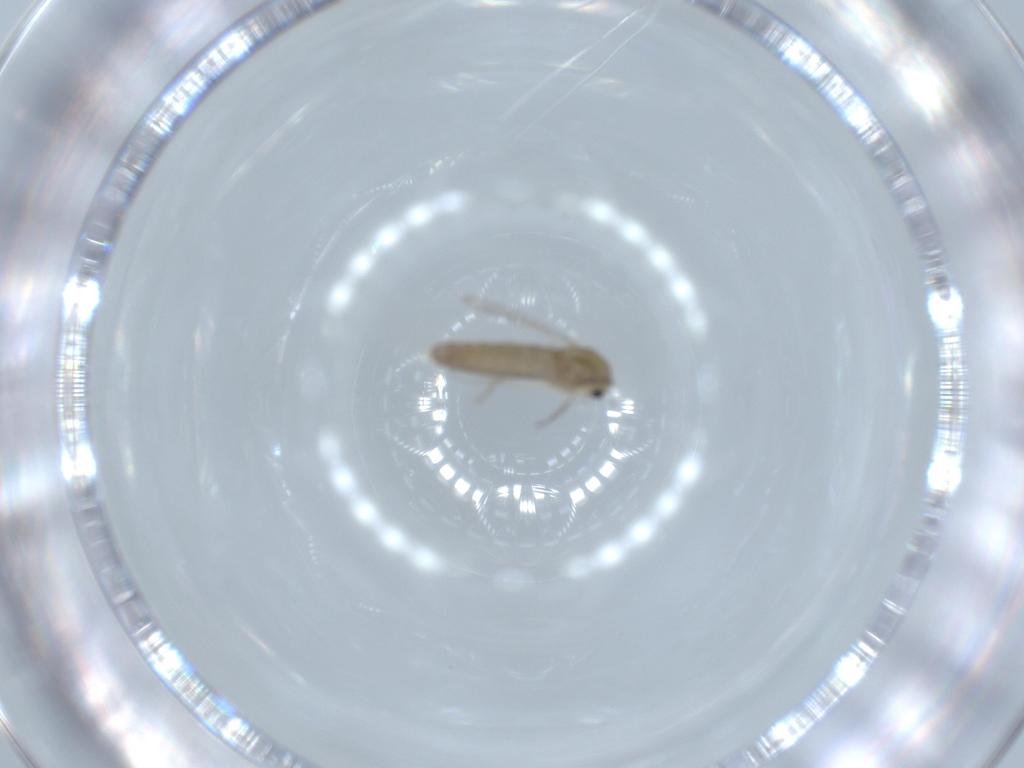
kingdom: Animalia
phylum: Arthropoda
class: Insecta
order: Diptera
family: Chironomidae
